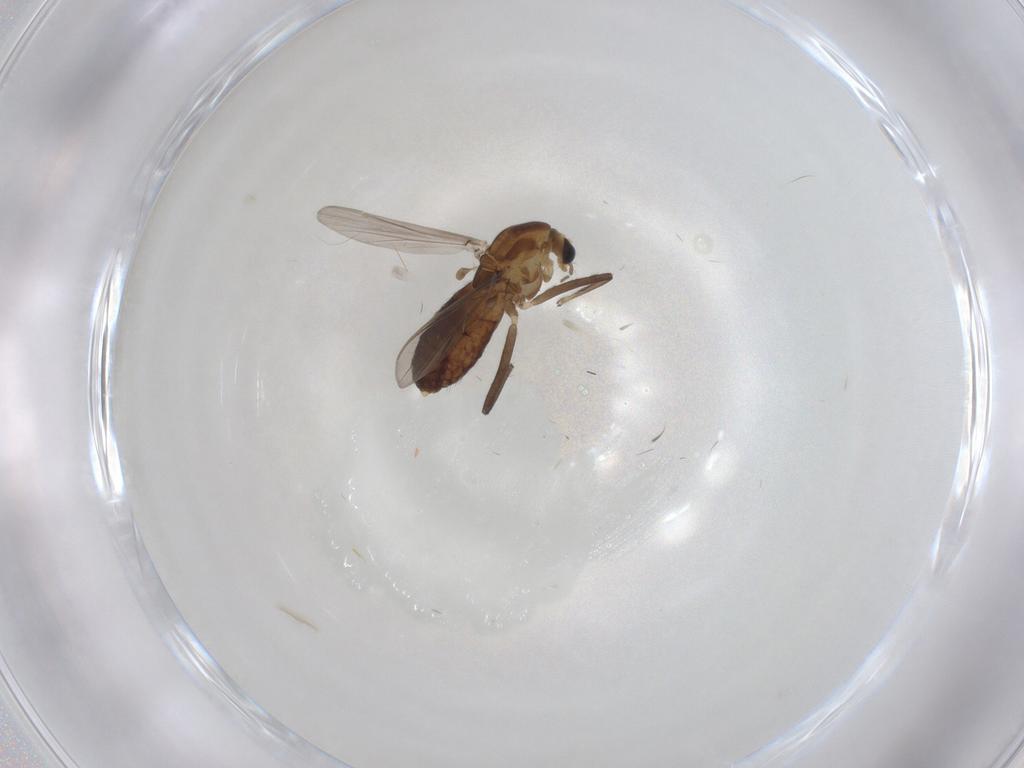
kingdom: Animalia
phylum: Arthropoda
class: Insecta
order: Diptera
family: Chironomidae
